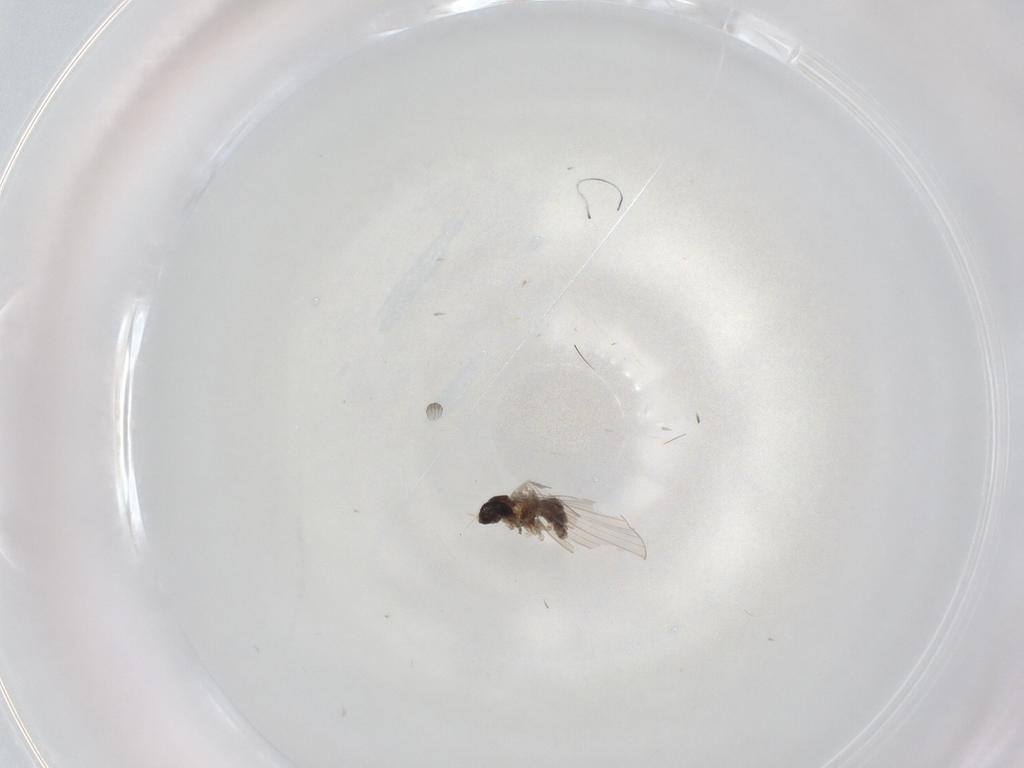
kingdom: Animalia
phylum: Arthropoda
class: Insecta
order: Diptera
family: Psychodidae
